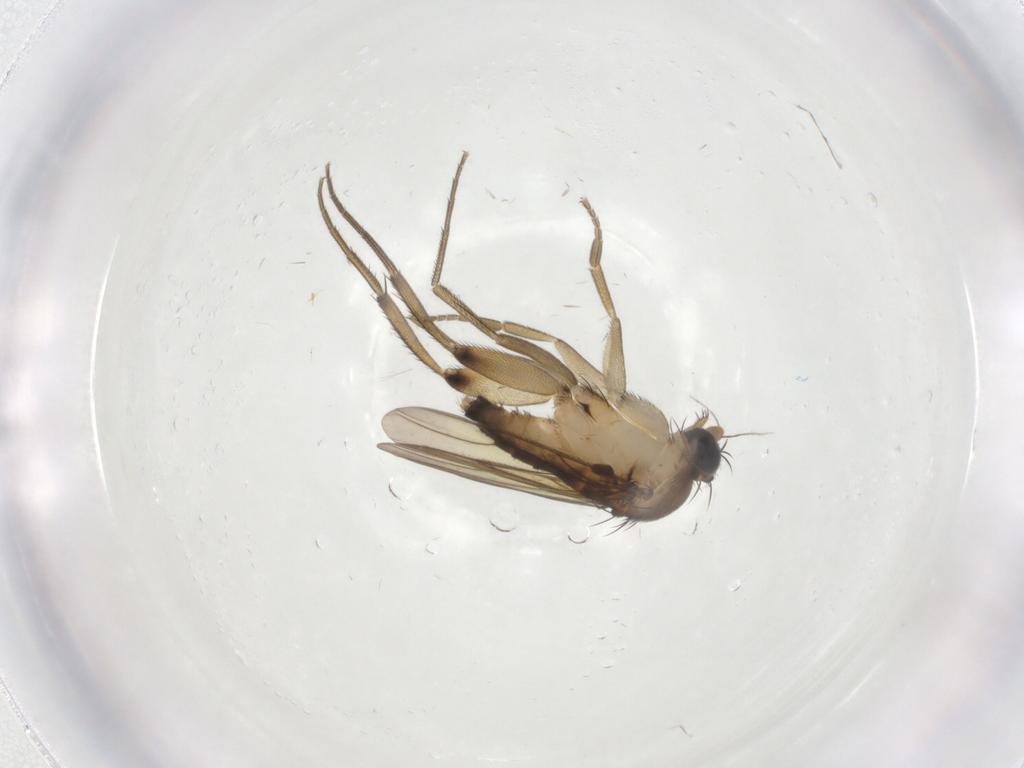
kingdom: Animalia
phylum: Arthropoda
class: Insecta
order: Diptera
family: Phoridae
